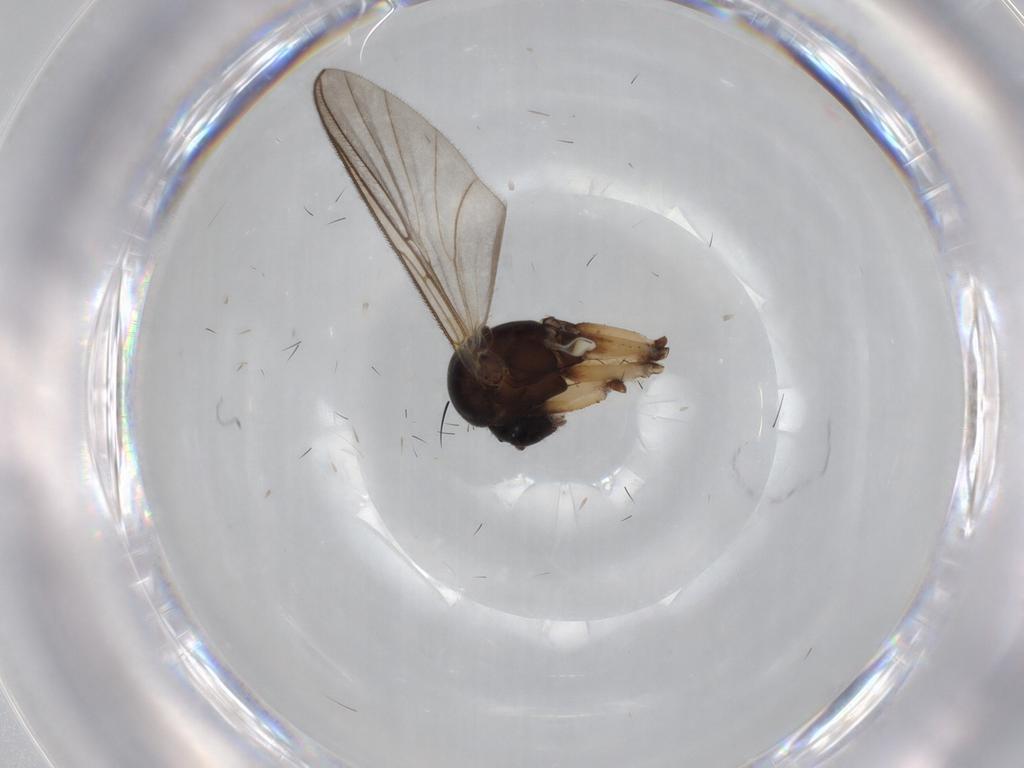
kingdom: Animalia
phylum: Arthropoda
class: Insecta
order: Diptera
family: Mycetophilidae
